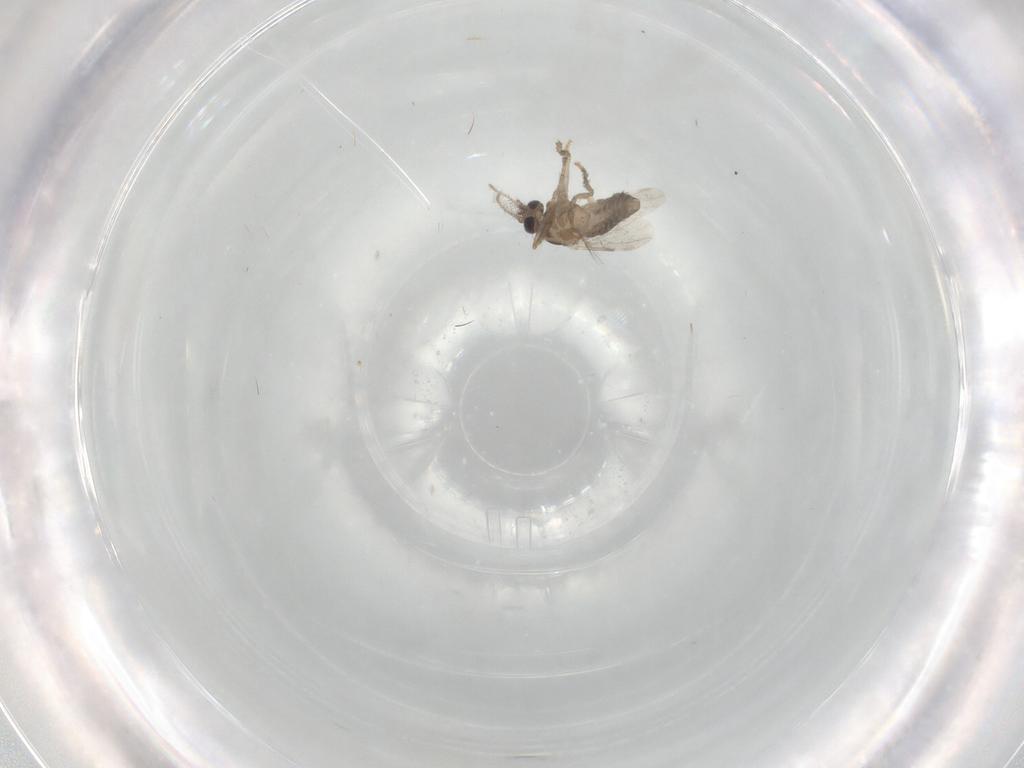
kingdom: Animalia
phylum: Arthropoda
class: Insecta
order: Diptera
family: Ceratopogonidae
